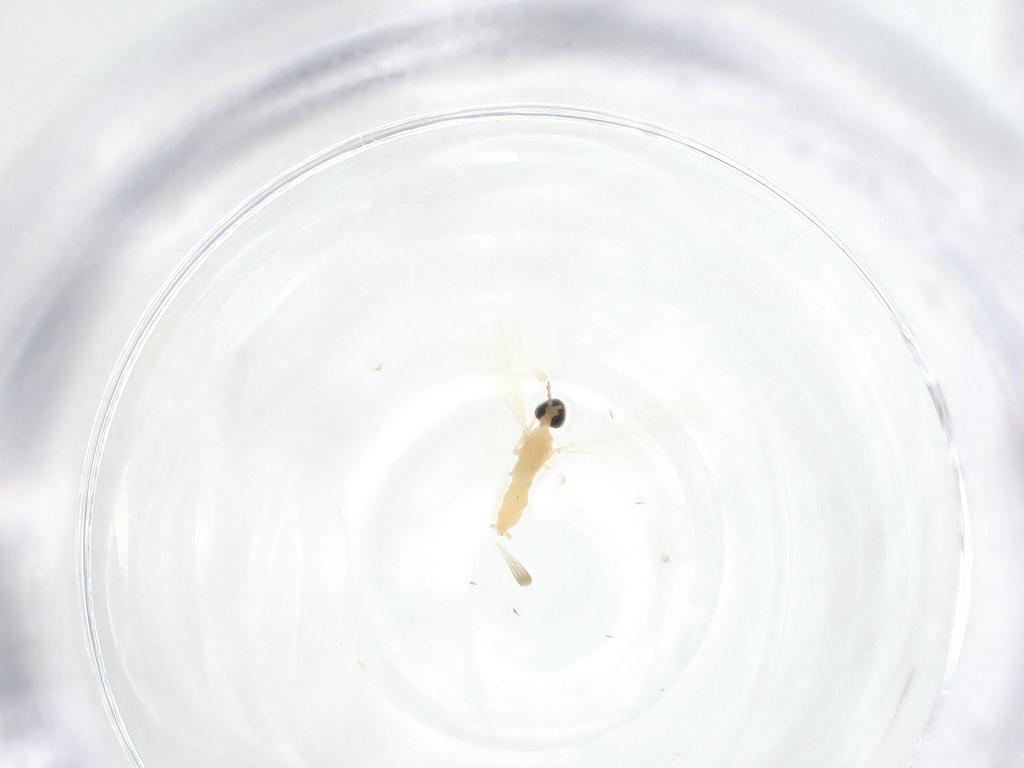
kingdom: Animalia
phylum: Arthropoda
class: Insecta
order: Diptera
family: Cecidomyiidae
